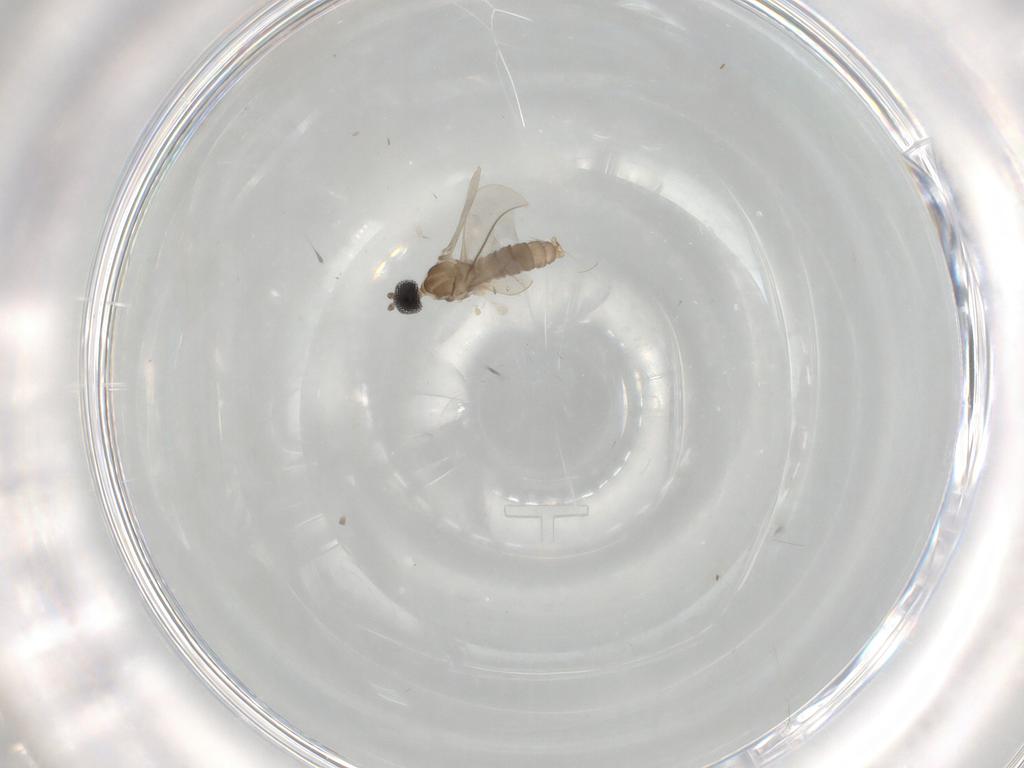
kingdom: Animalia
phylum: Arthropoda
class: Insecta
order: Diptera
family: Cecidomyiidae
